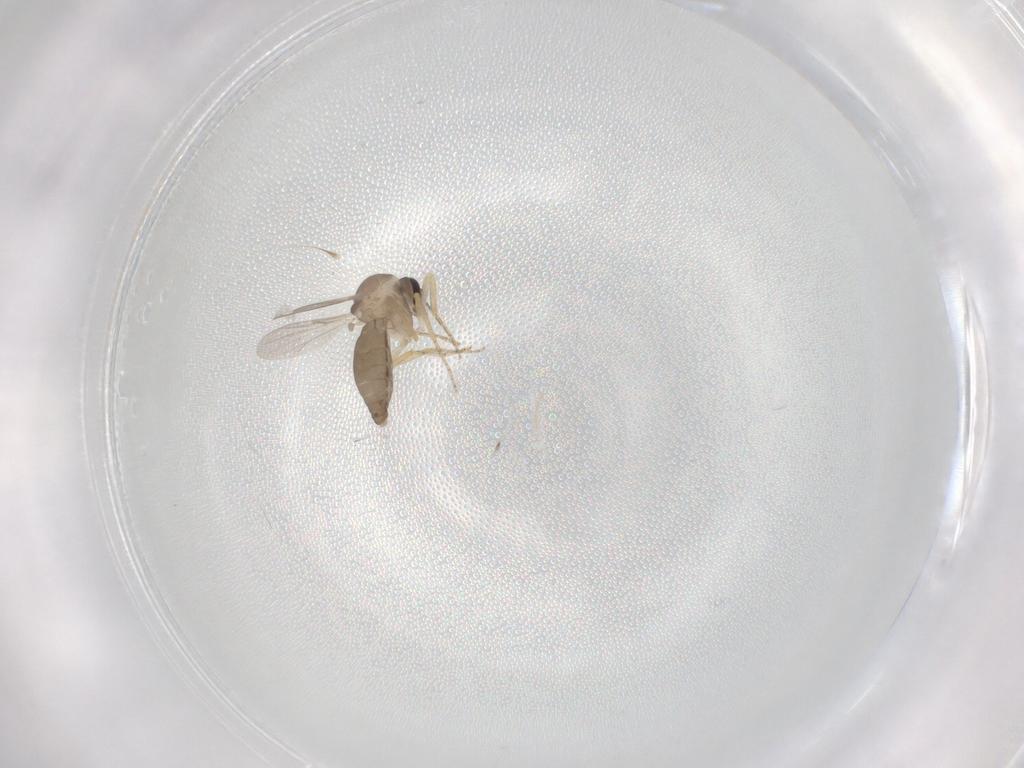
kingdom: Animalia
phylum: Arthropoda
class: Insecta
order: Diptera
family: Ceratopogonidae
